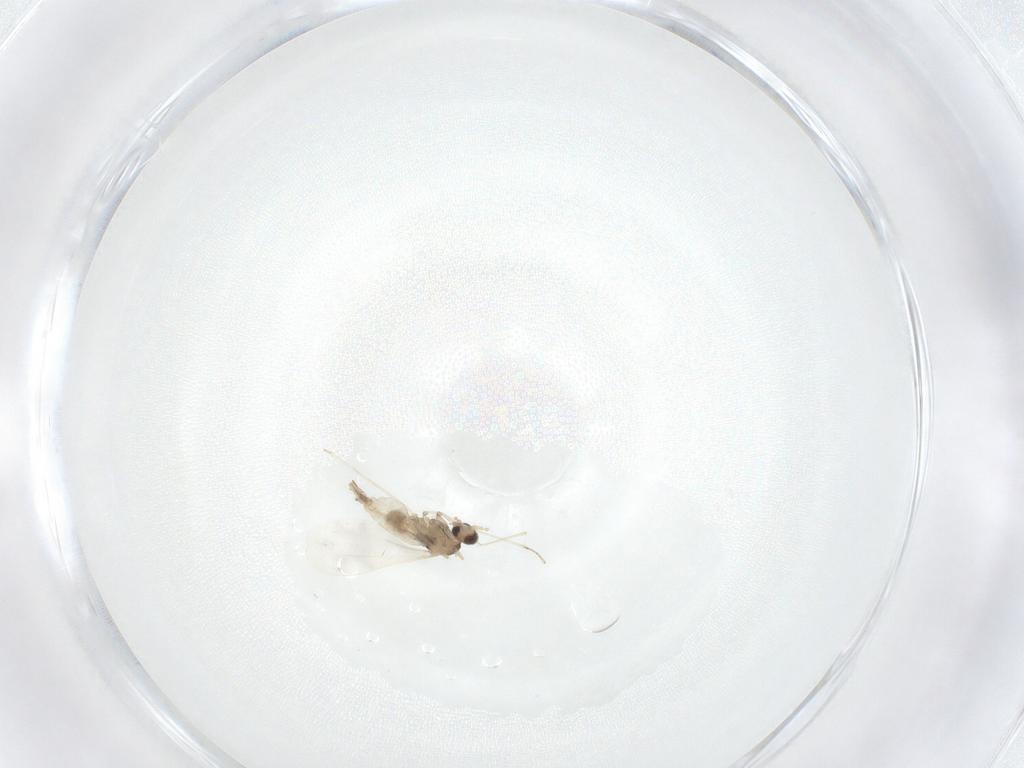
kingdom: Animalia
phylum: Arthropoda
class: Insecta
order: Diptera
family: Cecidomyiidae
